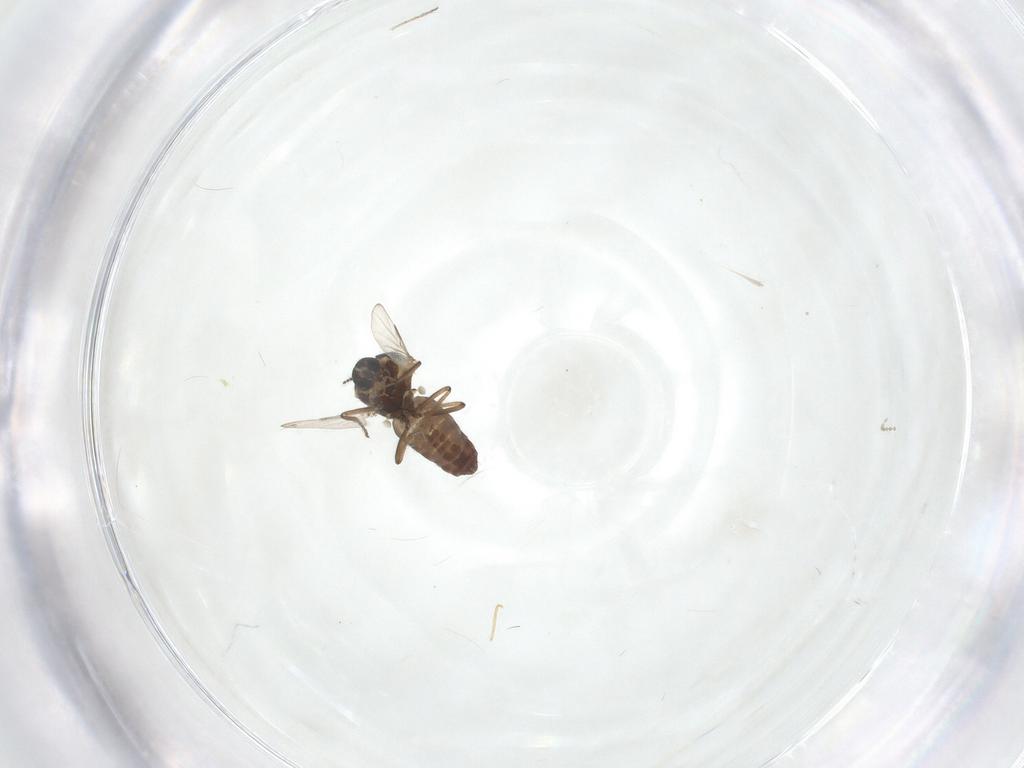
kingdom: Animalia
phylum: Arthropoda
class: Insecta
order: Diptera
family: Ceratopogonidae
